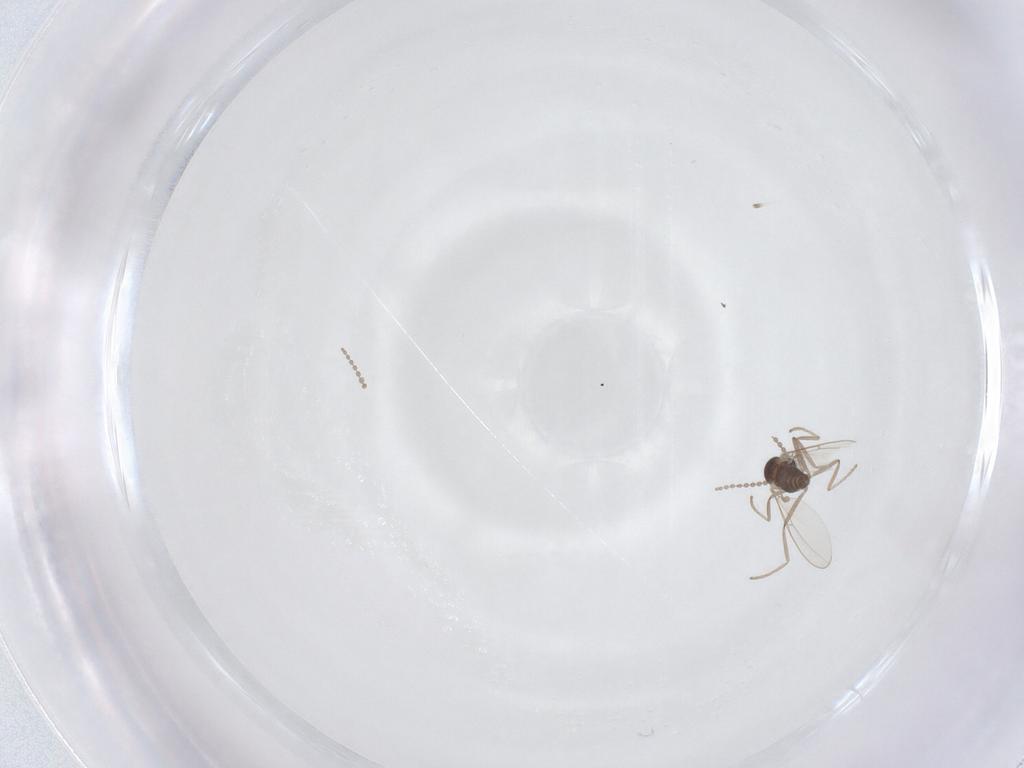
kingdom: Animalia
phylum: Arthropoda
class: Insecta
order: Diptera
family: Cecidomyiidae
